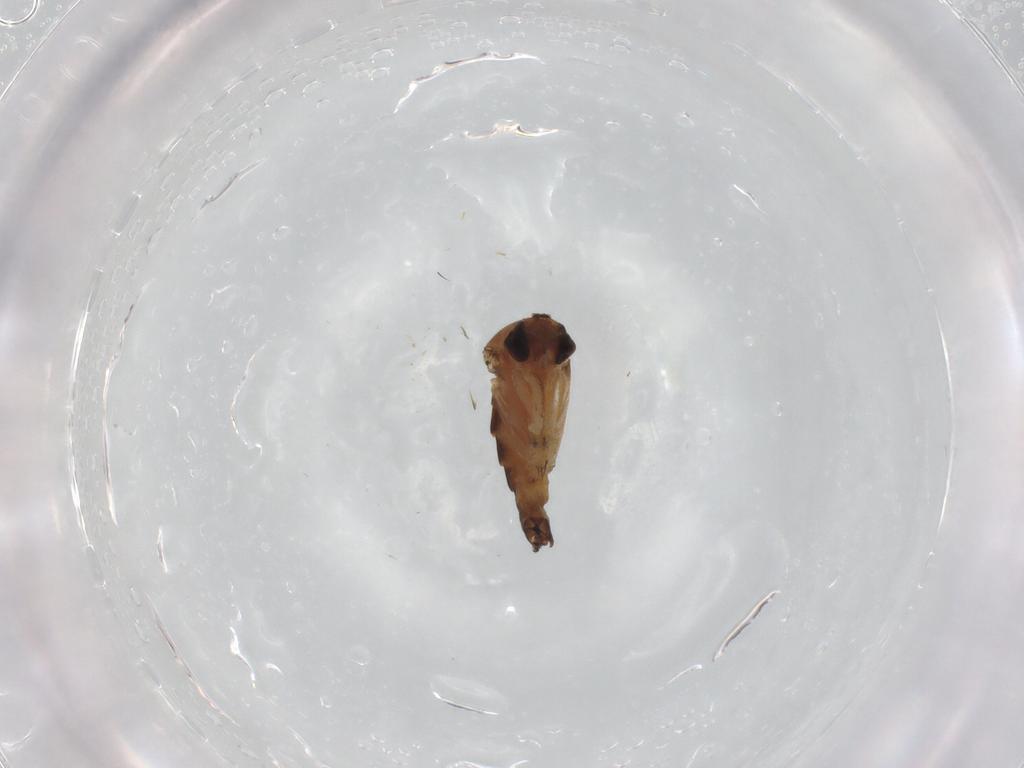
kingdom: Animalia
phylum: Arthropoda
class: Insecta
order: Diptera
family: Phoridae
